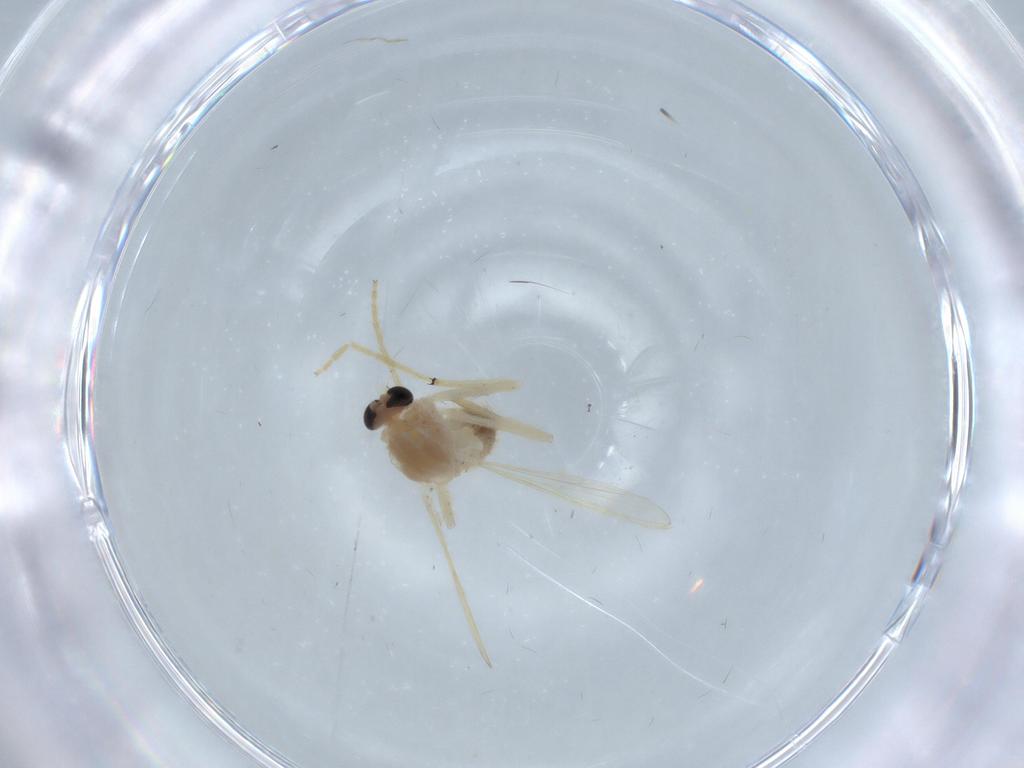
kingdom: Animalia
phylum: Arthropoda
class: Insecta
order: Diptera
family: Chironomidae
